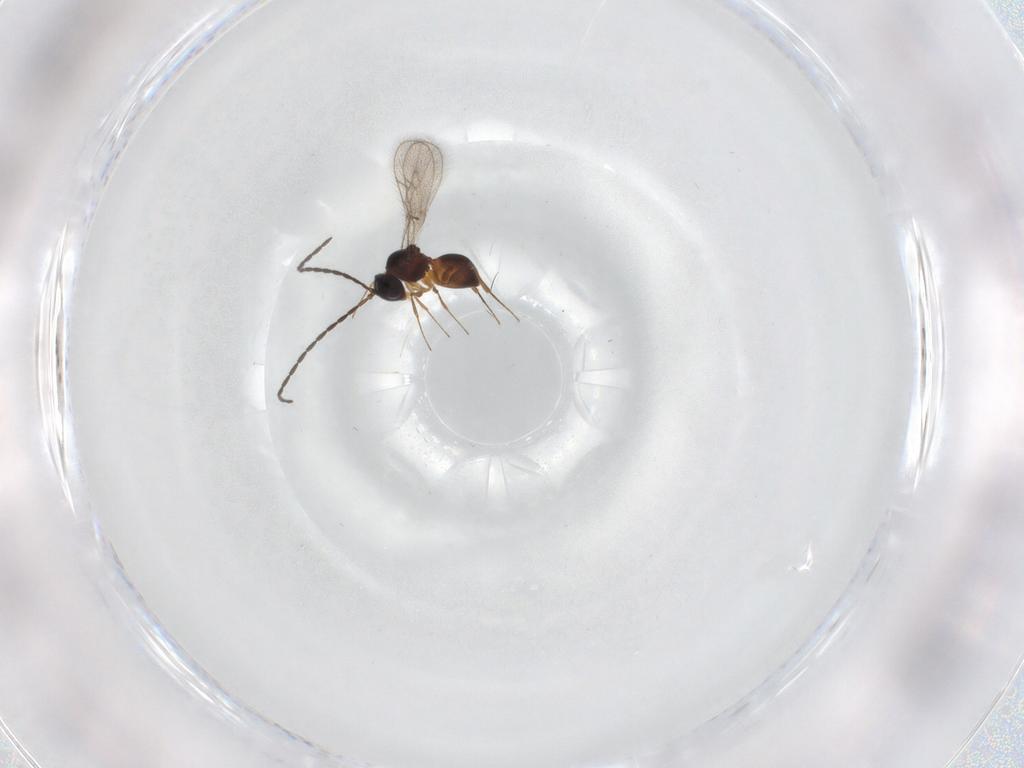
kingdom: Animalia
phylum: Arthropoda
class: Insecta
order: Hymenoptera
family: Figitidae
